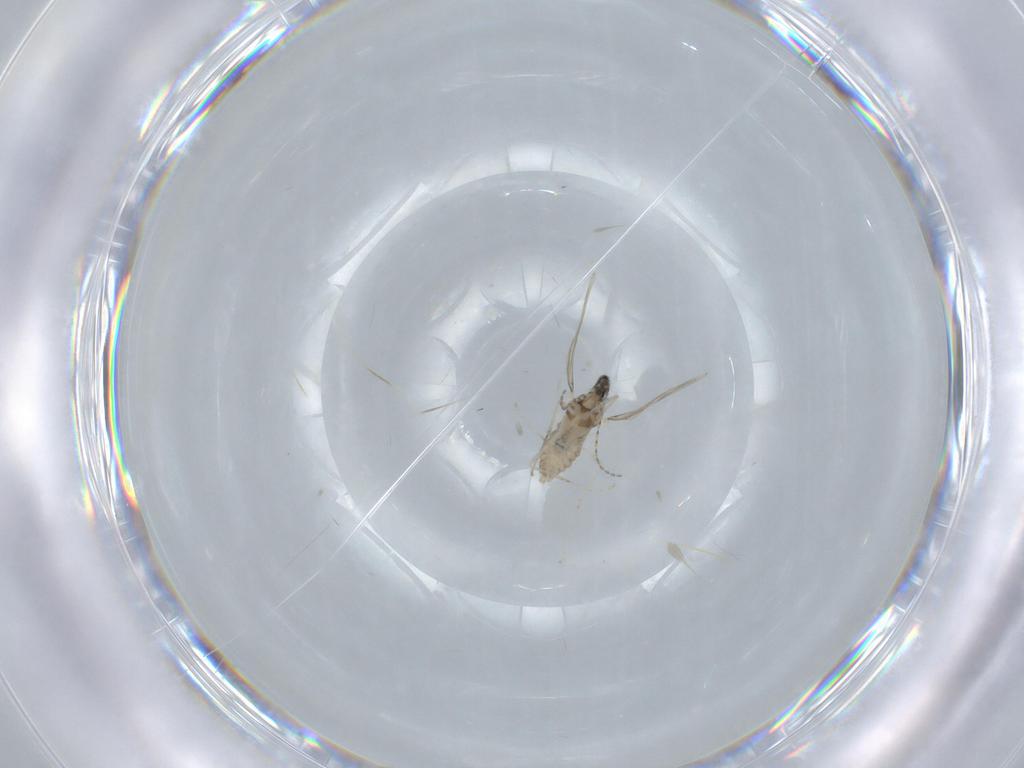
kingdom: Animalia
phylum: Arthropoda
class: Insecta
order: Diptera
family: Cecidomyiidae
